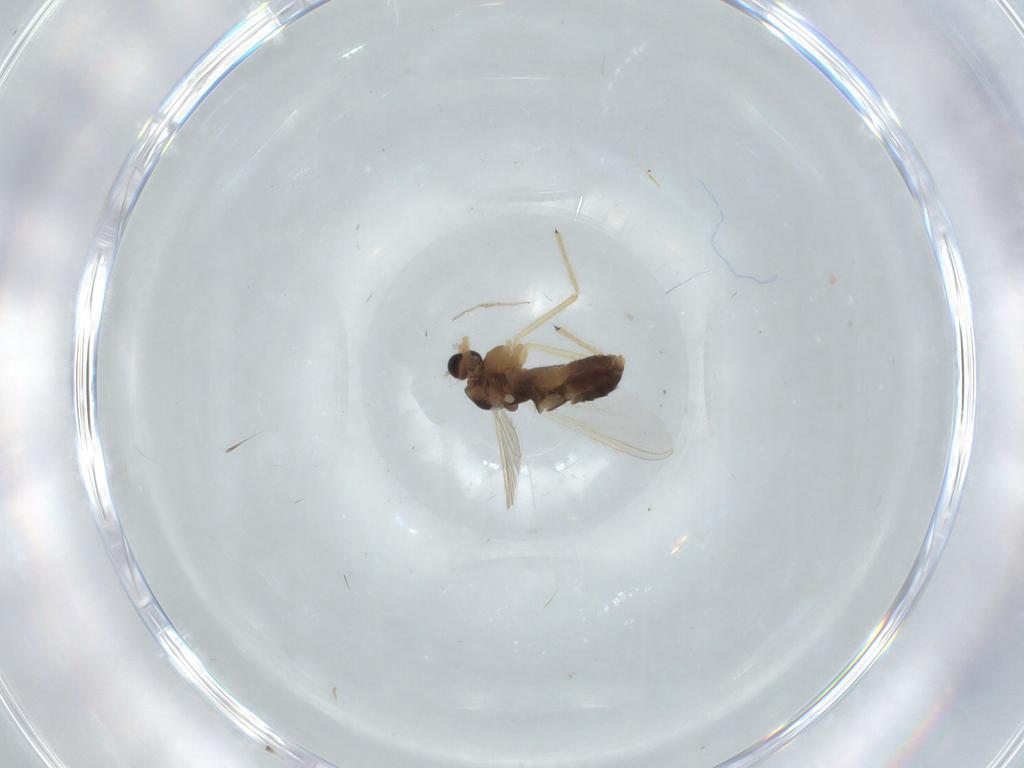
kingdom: Animalia
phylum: Arthropoda
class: Insecta
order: Diptera
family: Chironomidae
